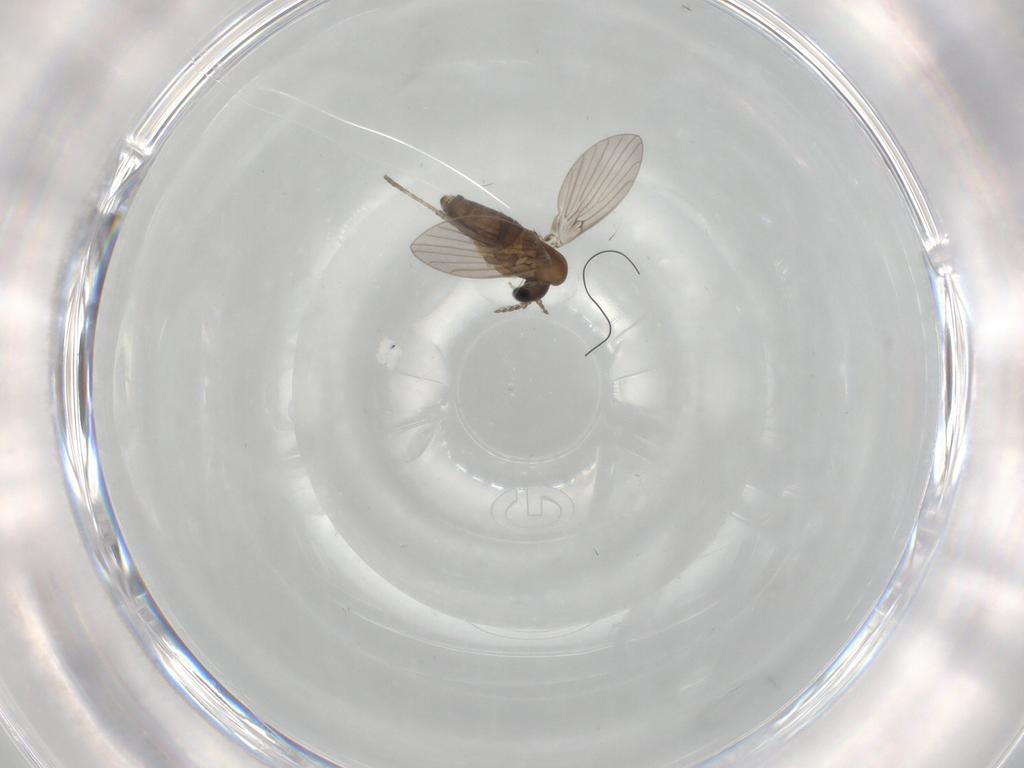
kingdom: Animalia
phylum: Arthropoda
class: Insecta
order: Diptera
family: Psychodidae
